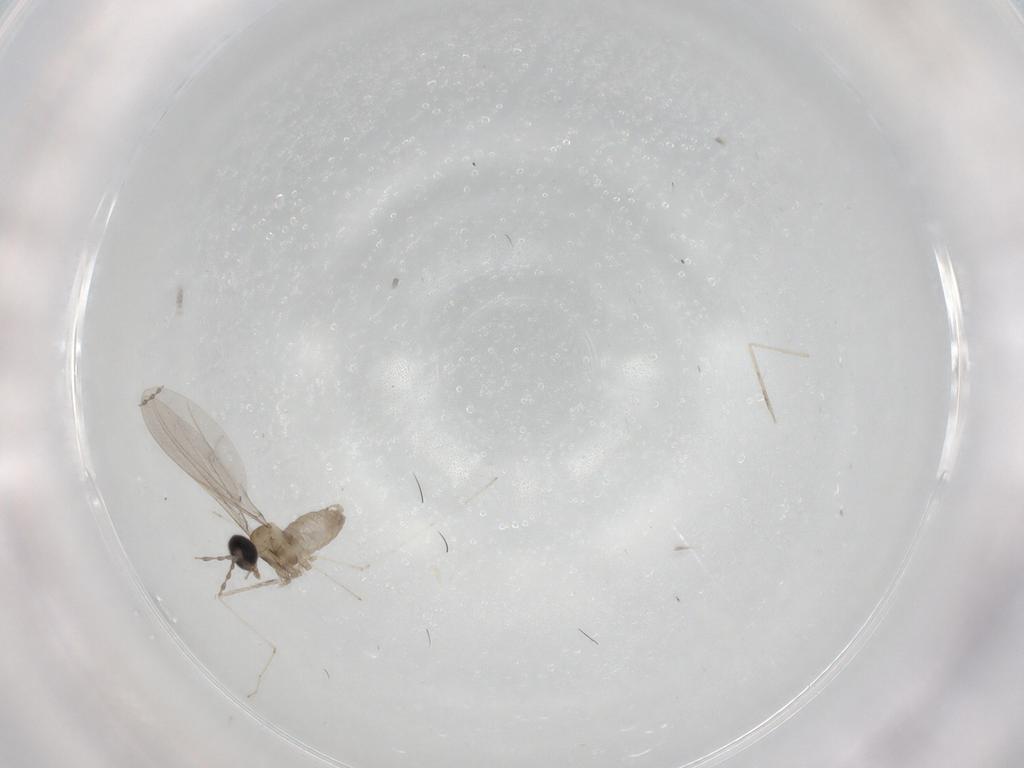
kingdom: Animalia
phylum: Arthropoda
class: Insecta
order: Diptera
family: Cecidomyiidae
